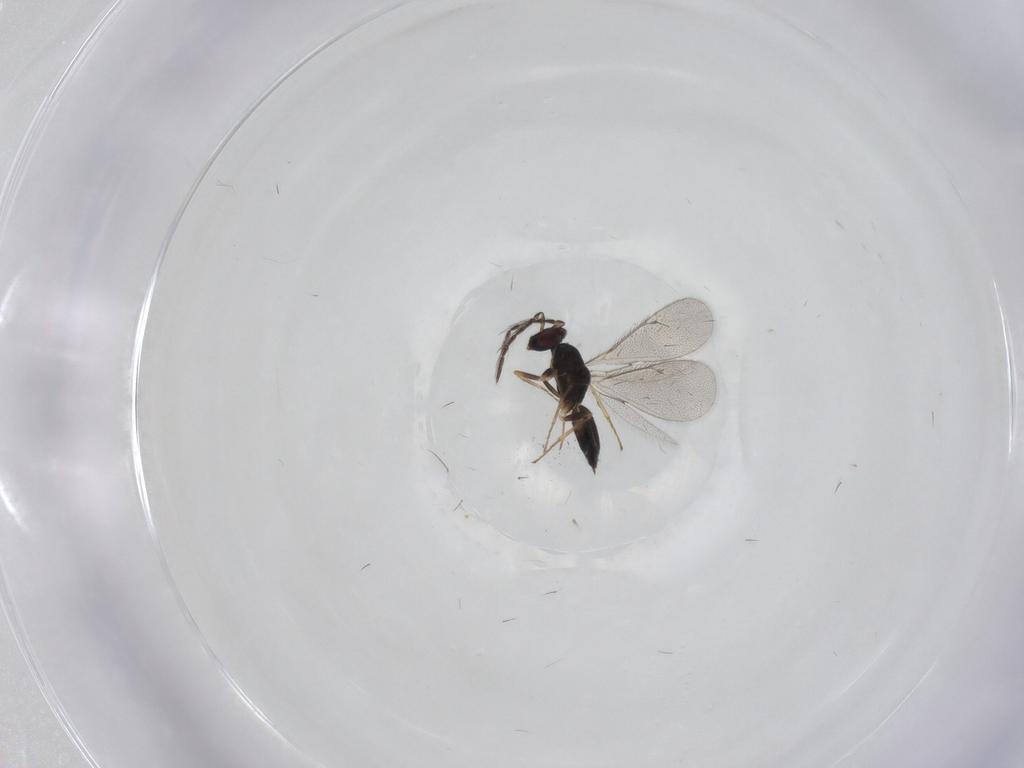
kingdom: Animalia
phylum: Arthropoda
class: Insecta
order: Hymenoptera
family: Eulophidae
